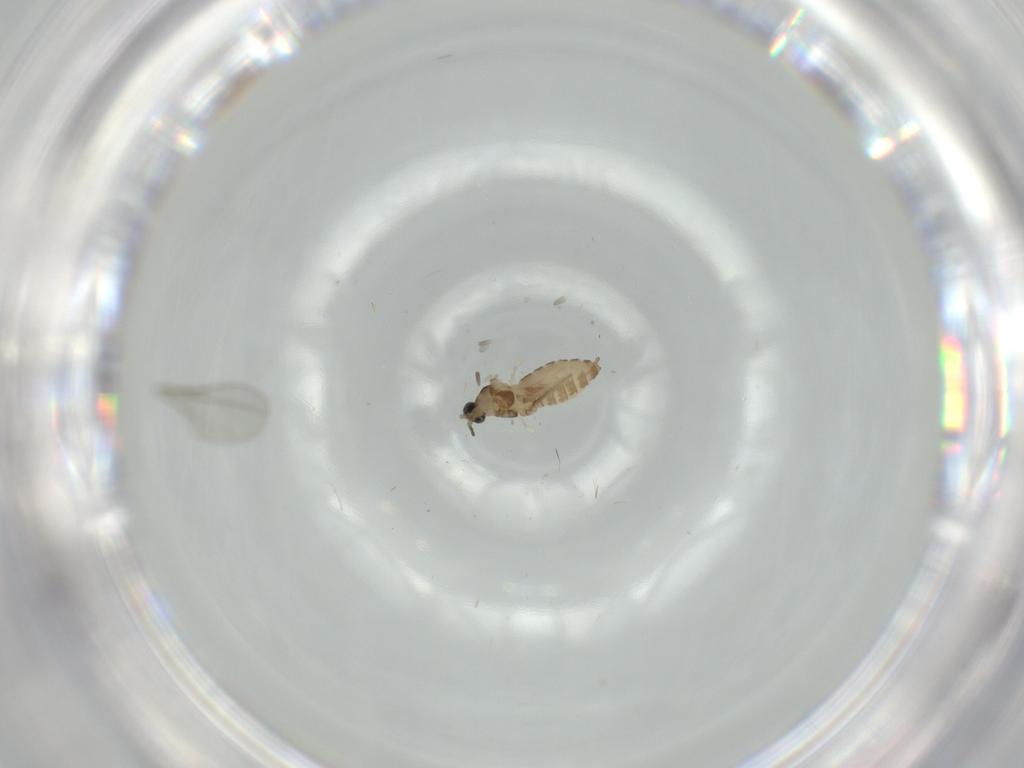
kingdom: Animalia
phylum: Arthropoda
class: Insecta
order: Diptera
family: Cecidomyiidae
